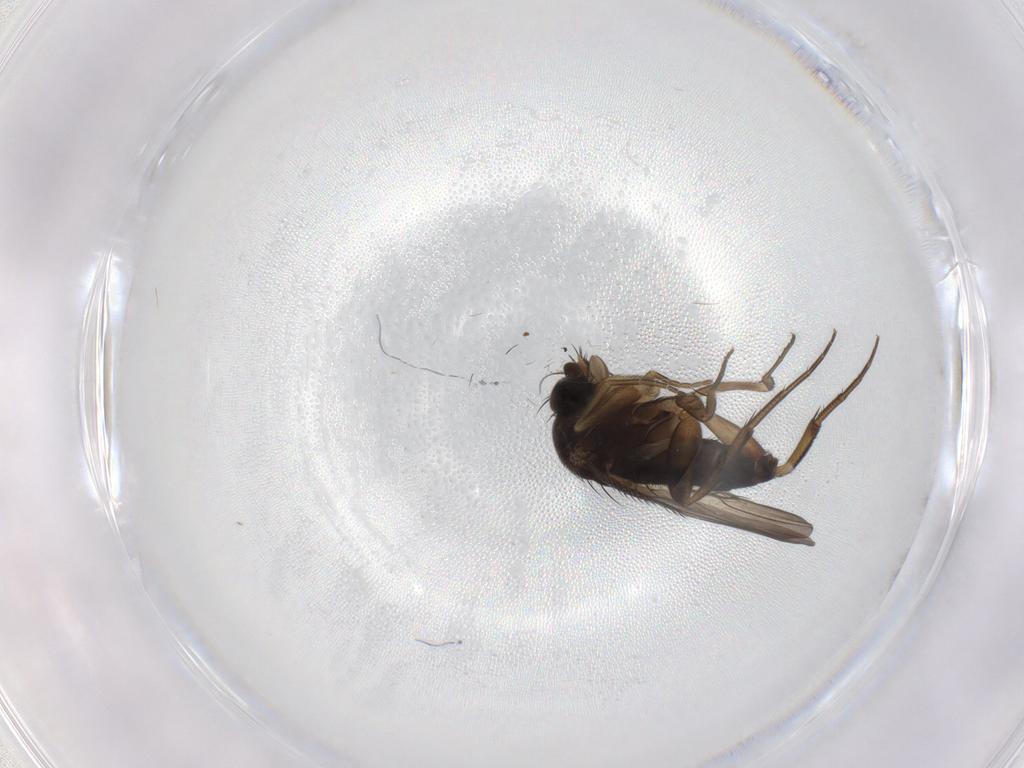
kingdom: Animalia
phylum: Arthropoda
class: Insecta
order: Diptera
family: Phoridae
